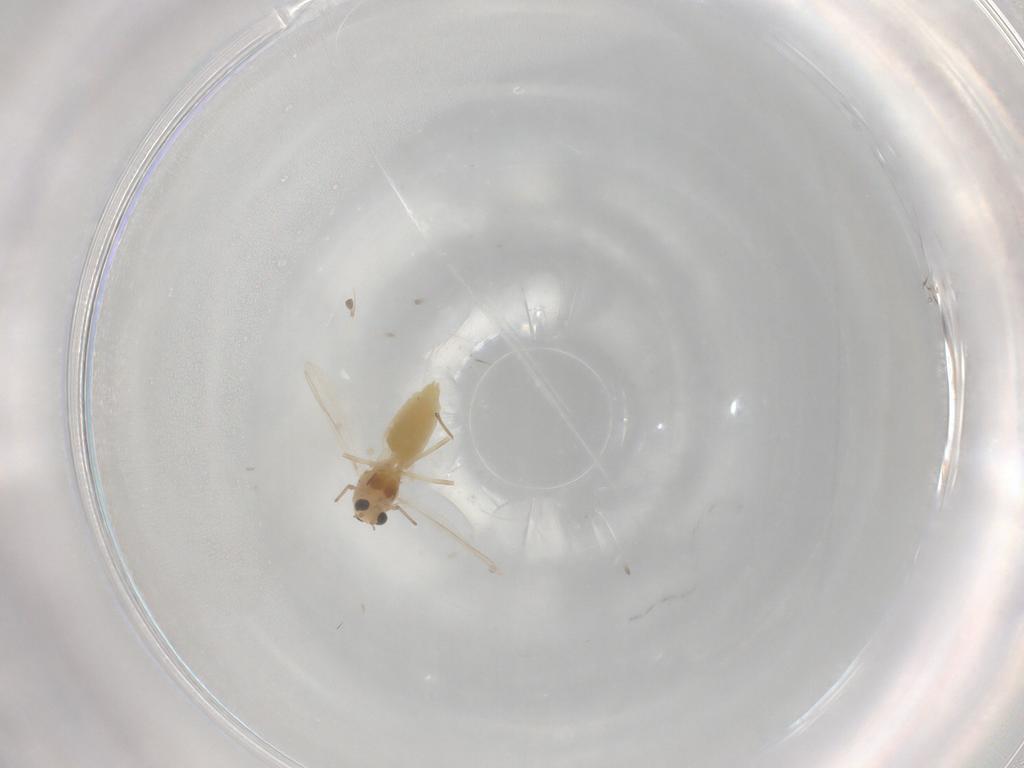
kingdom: Animalia
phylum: Arthropoda
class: Insecta
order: Diptera
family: Chironomidae
